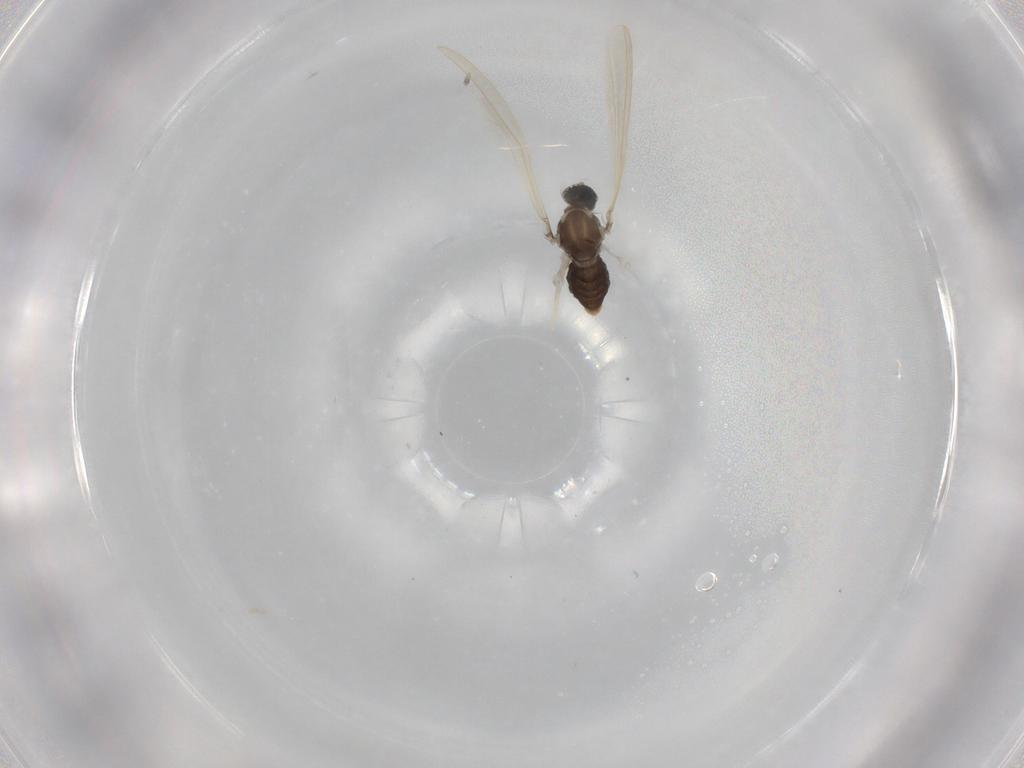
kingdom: Animalia
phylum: Arthropoda
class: Insecta
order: Diptera
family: Cecidomyiidae
